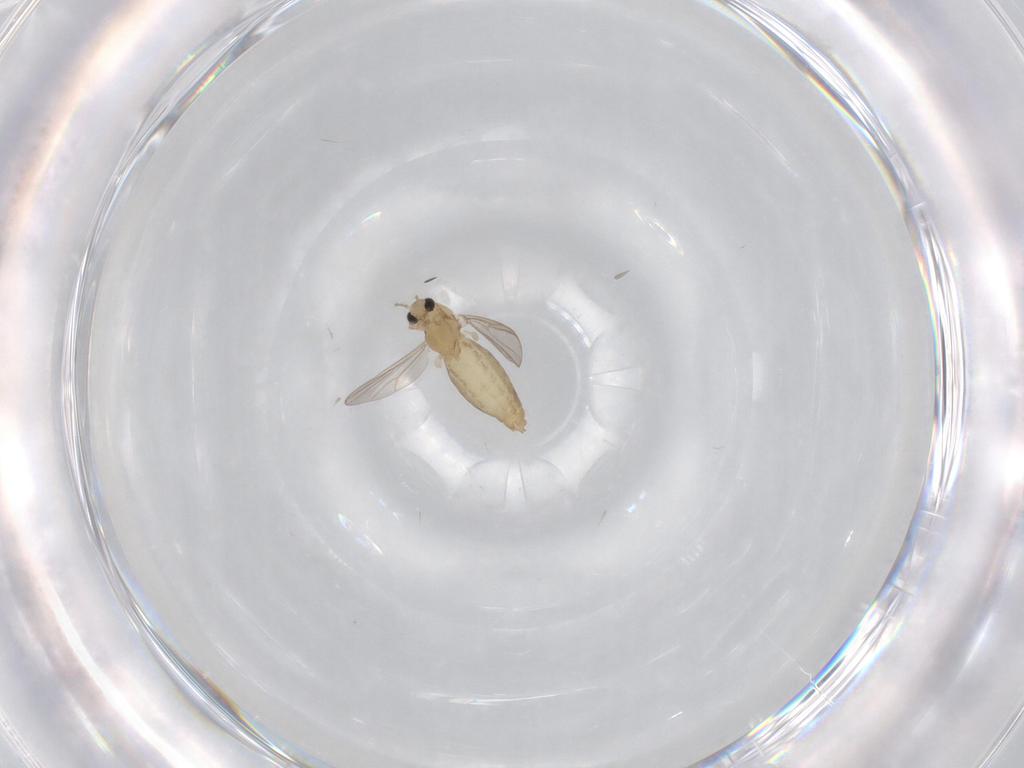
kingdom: Animalia
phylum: Arthropoda
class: Insecta
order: Diptera
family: Chironomidae
